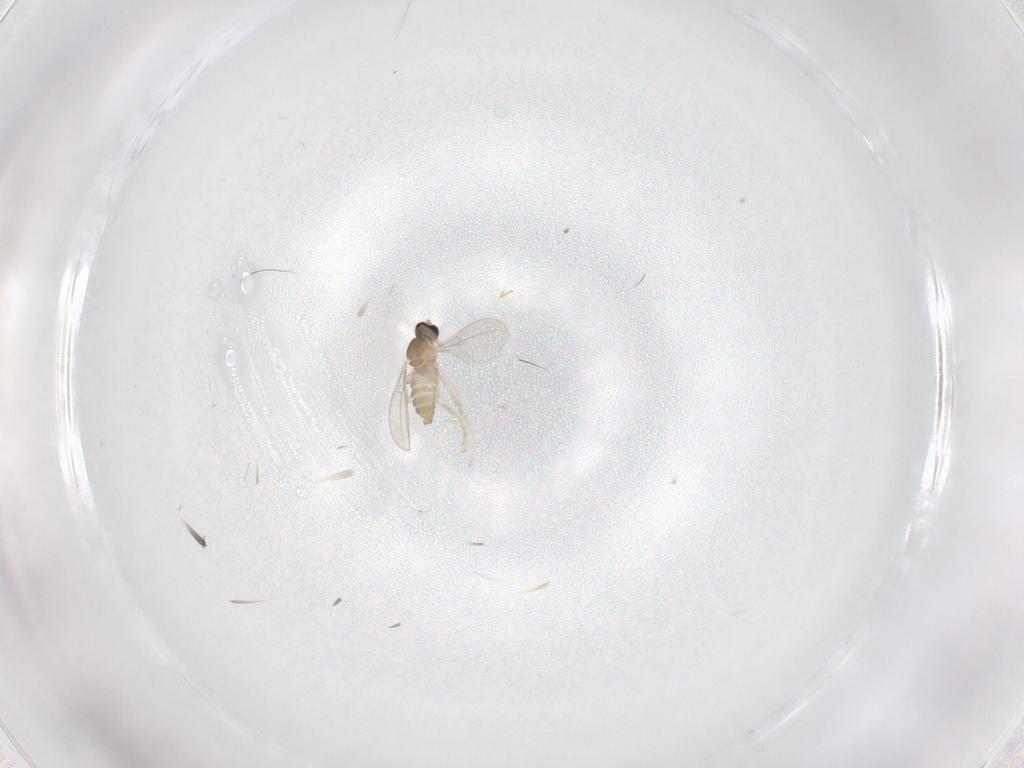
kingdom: Animalia
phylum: Arthropoda
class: Insecta
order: Diptera
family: Cecidomyiidae
